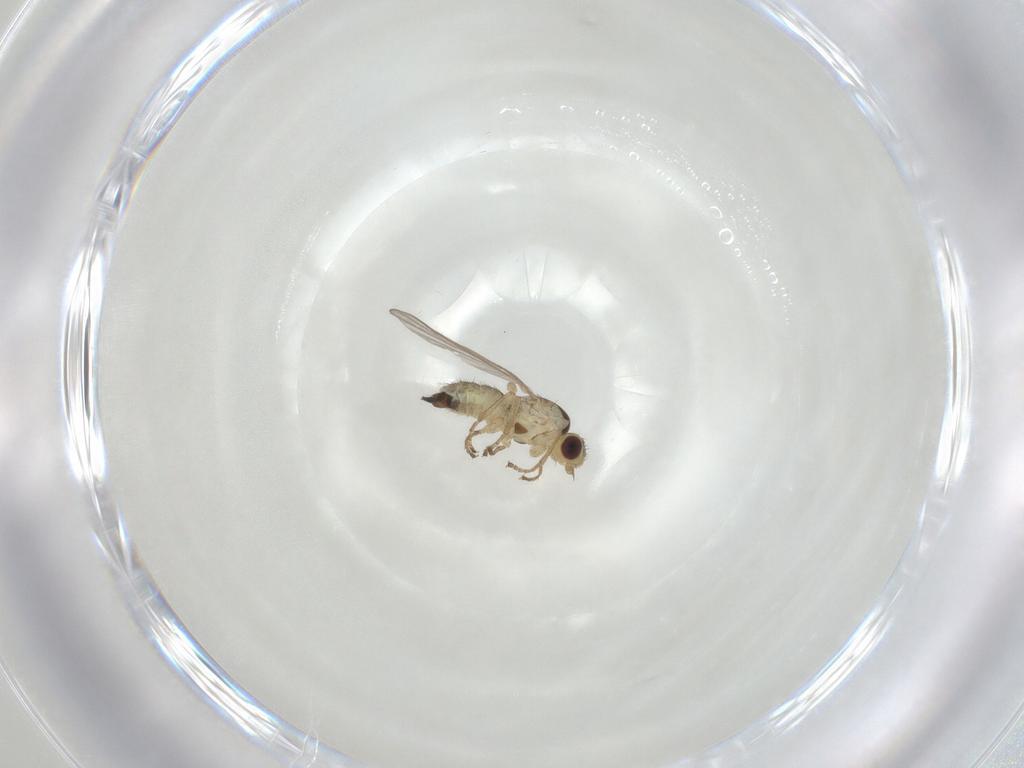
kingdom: Animalia
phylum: Arthropoda
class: Insecta
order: Diptera
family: Agromyzidae
